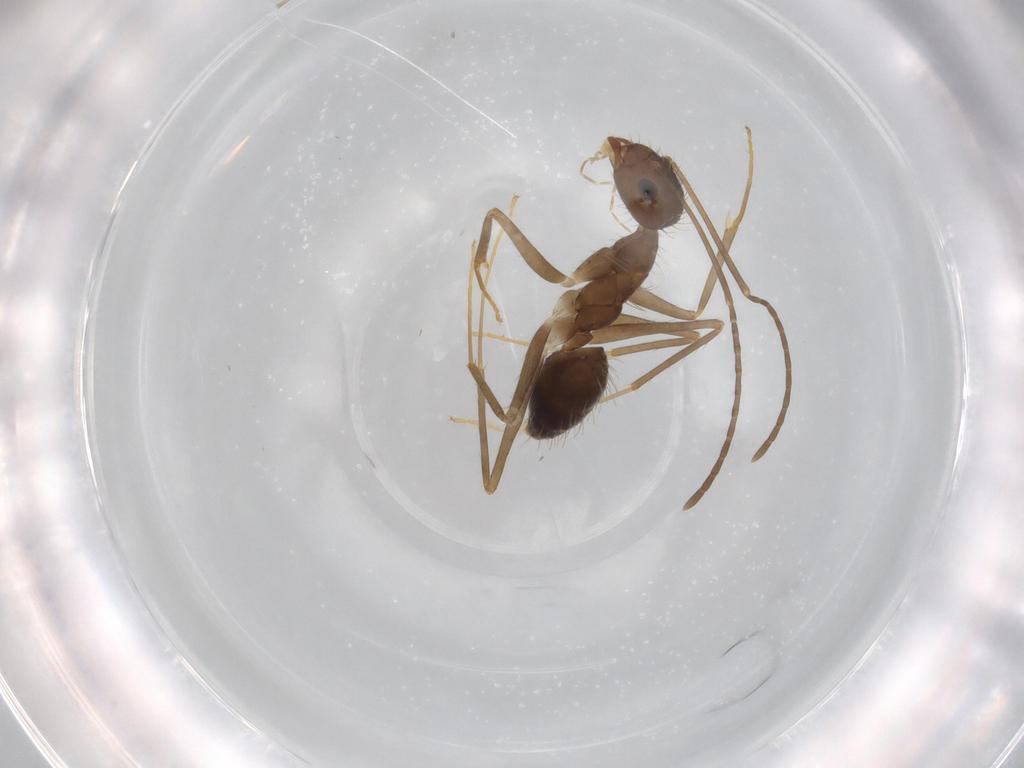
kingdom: Animalia
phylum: Arthropoda
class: Insecta
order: Hymenoptera
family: Formicidae
